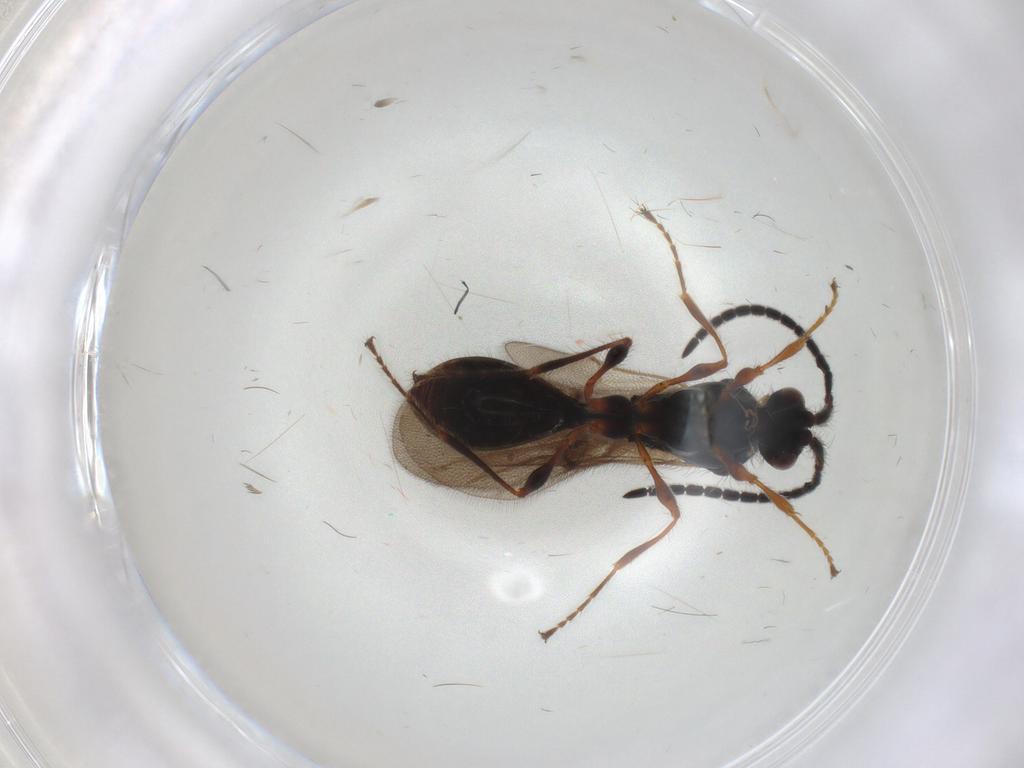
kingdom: Animalia
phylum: Arthropoda
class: Insecta
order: Hymenoptera
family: Diapriidae
